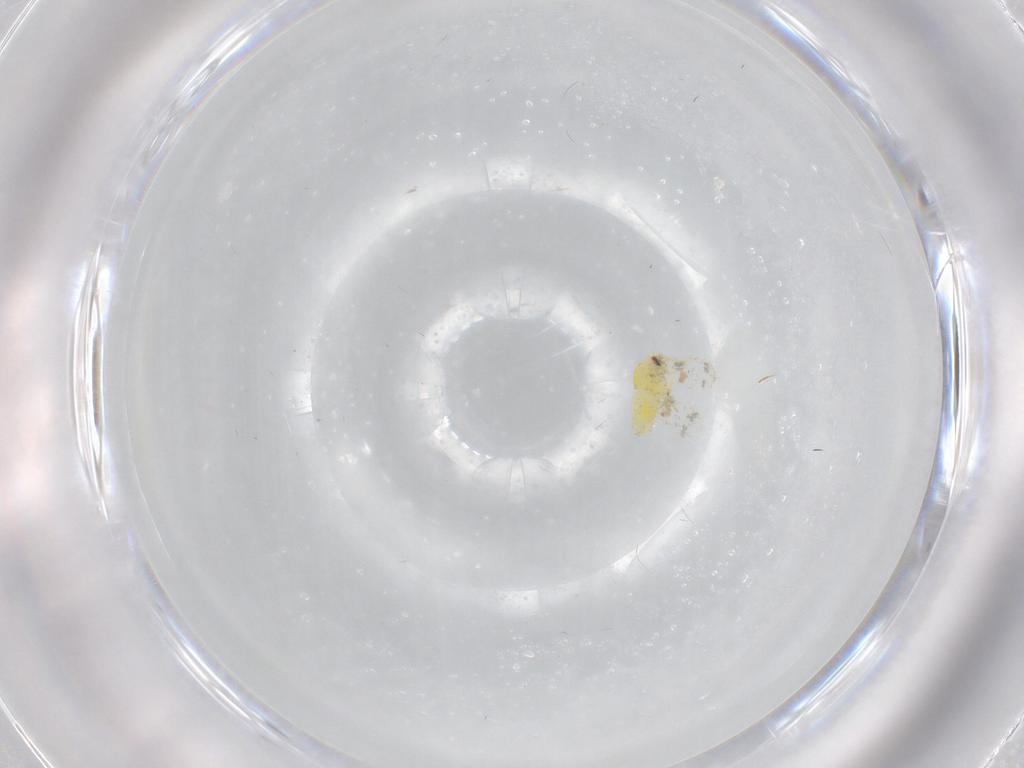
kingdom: Animalia
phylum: Arthropoda
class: Insecta
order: Hemiptera
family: Aleyrodidae
